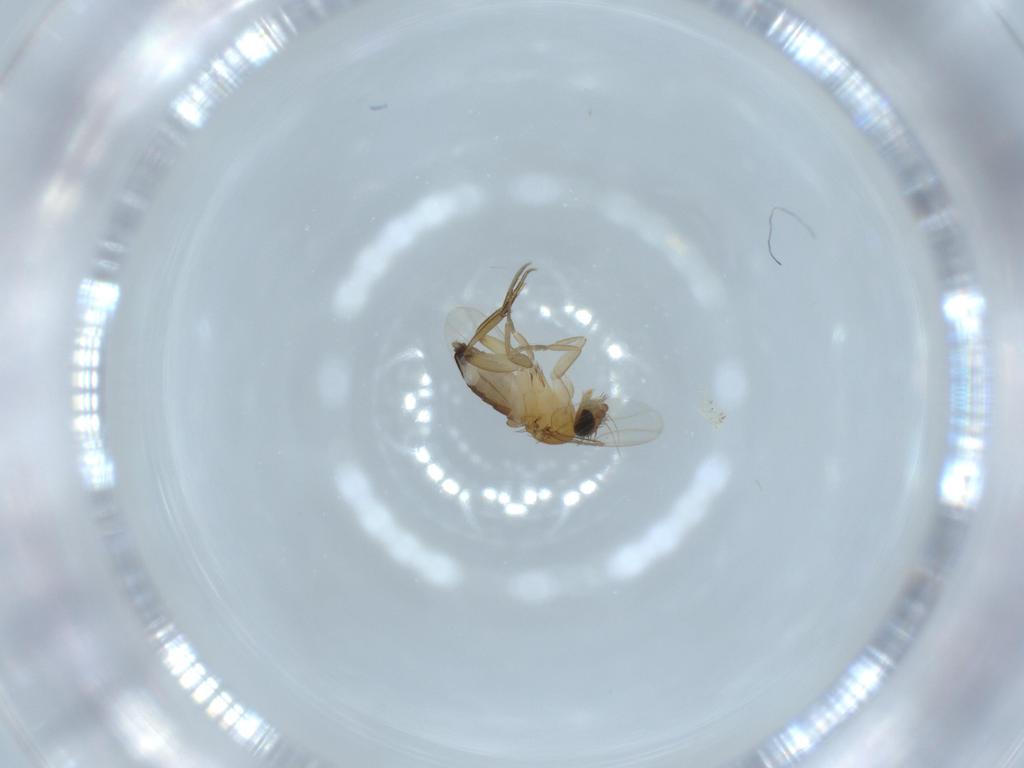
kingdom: Animalia
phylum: Arthropoda
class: Insecta
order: Diptera
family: Phoridae
